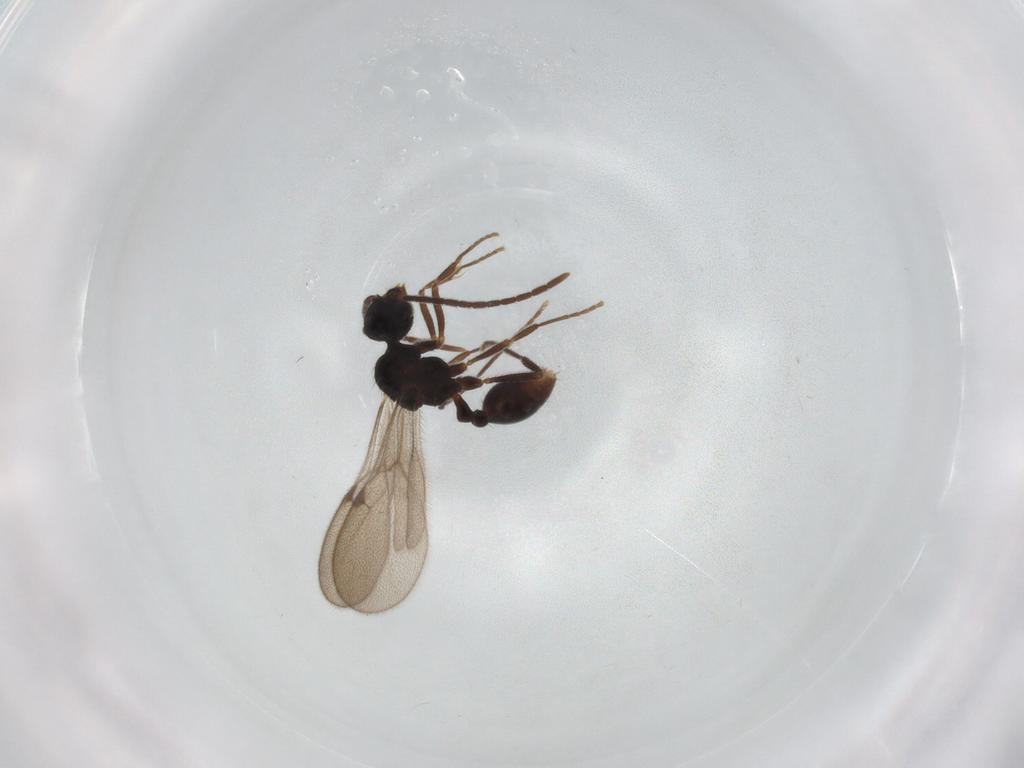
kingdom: Animalia
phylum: Arthropoda
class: Insecta
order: Hymenoptera
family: Formicidae
